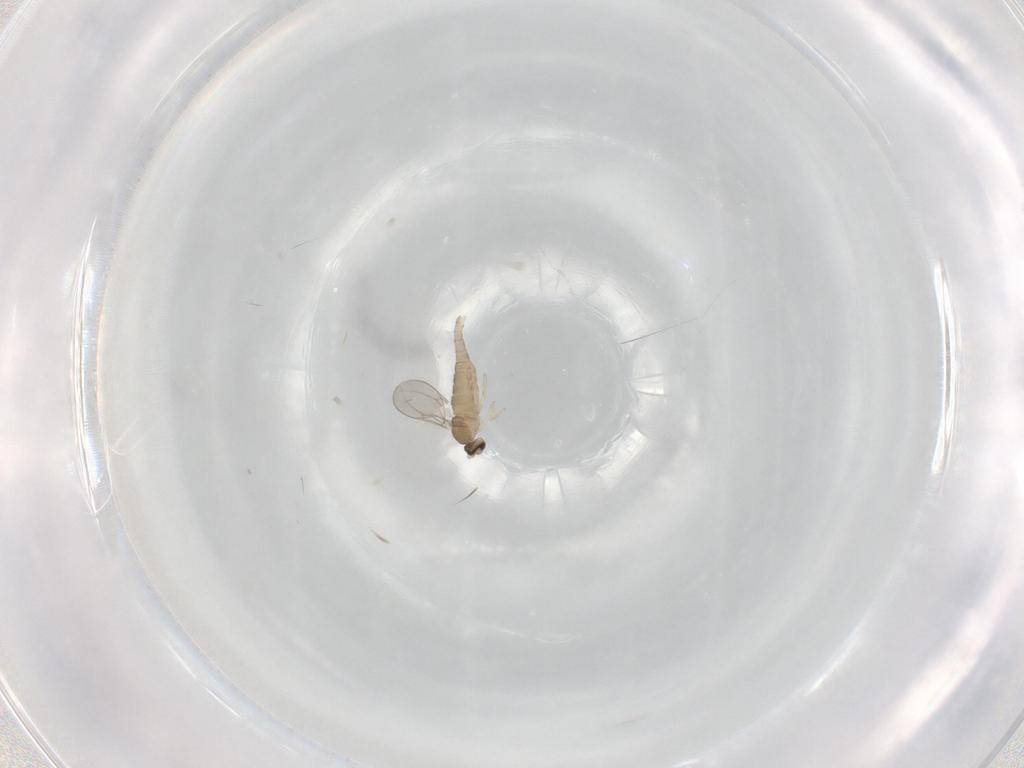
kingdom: Animalia
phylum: Arthropoda
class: Insecta
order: Diptera
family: Cecidomyiidae
